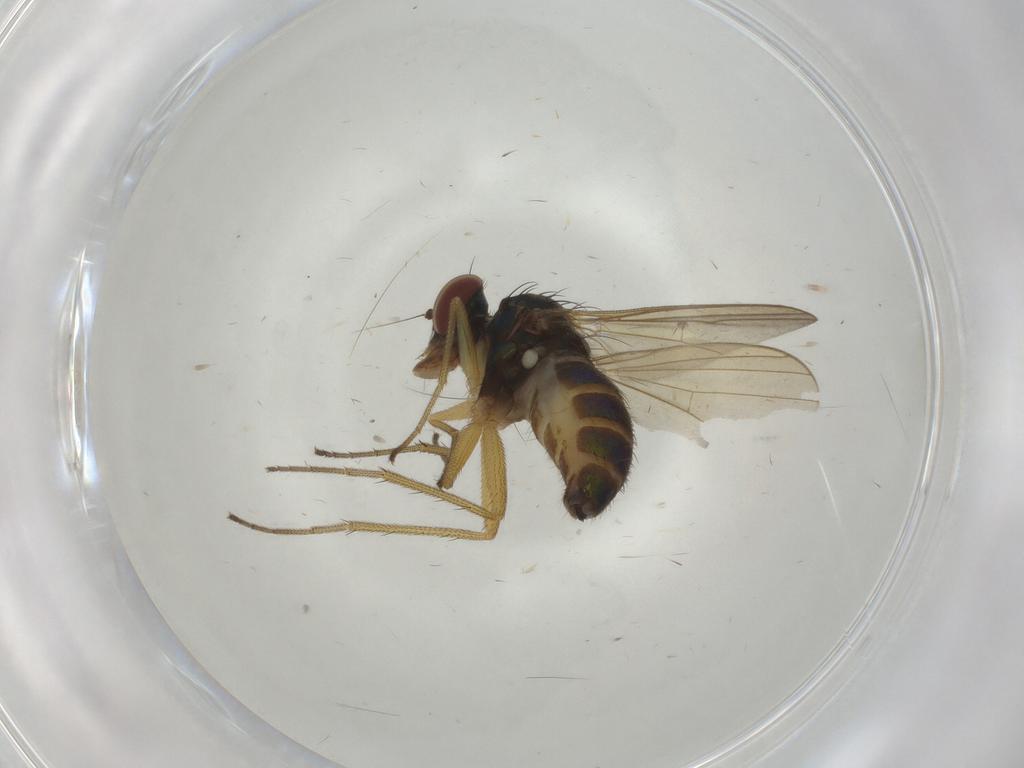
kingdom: Animalia
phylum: Arthropoda
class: Insecta
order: Diptera
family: Dolichopodidae
